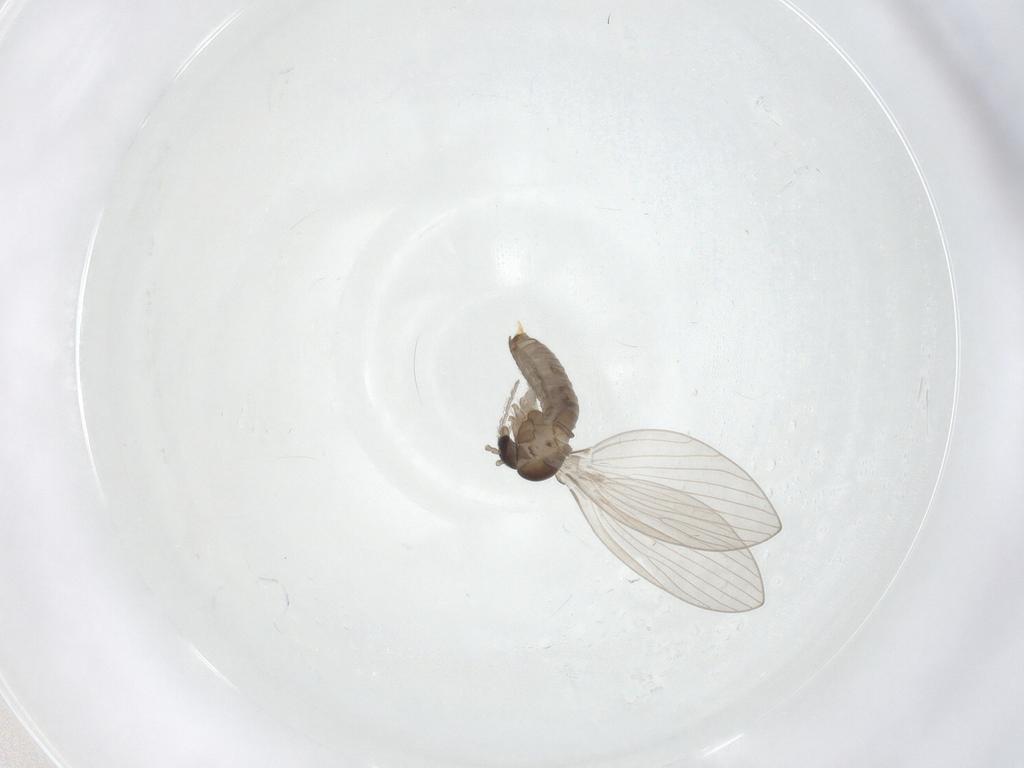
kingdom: Animalia
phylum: Arthropoda
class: Insecta
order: Diptera
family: Psychodidae
